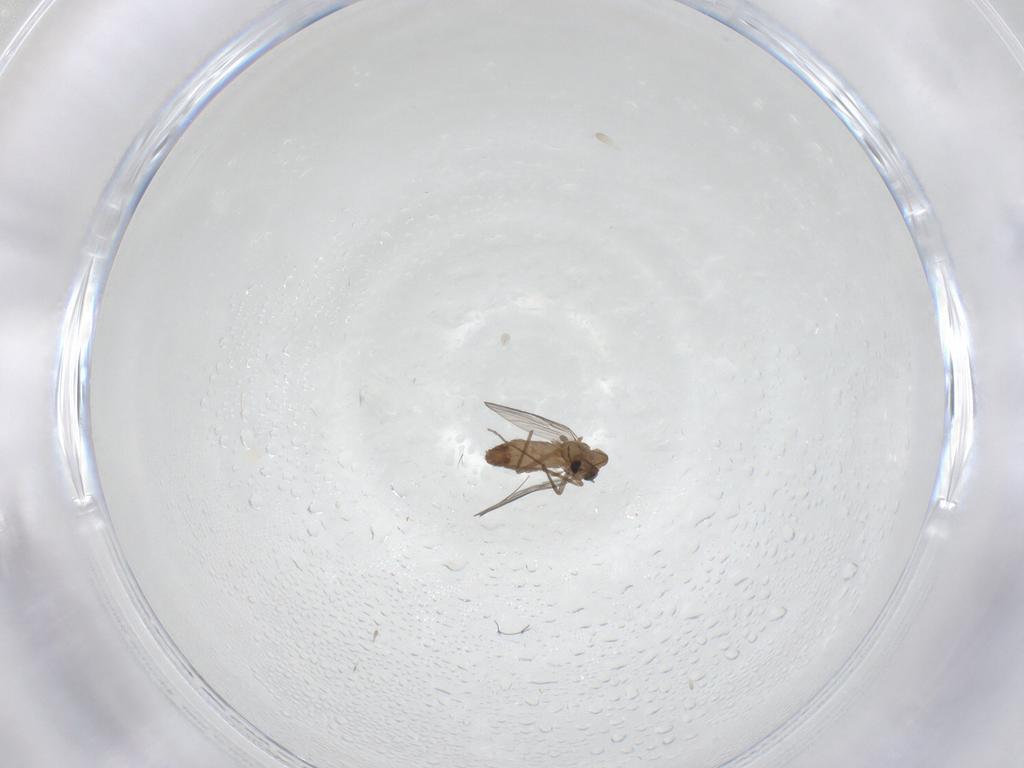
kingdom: Animalia
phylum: Arthropoda
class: Insecta
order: Diptera
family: Chironomidae
